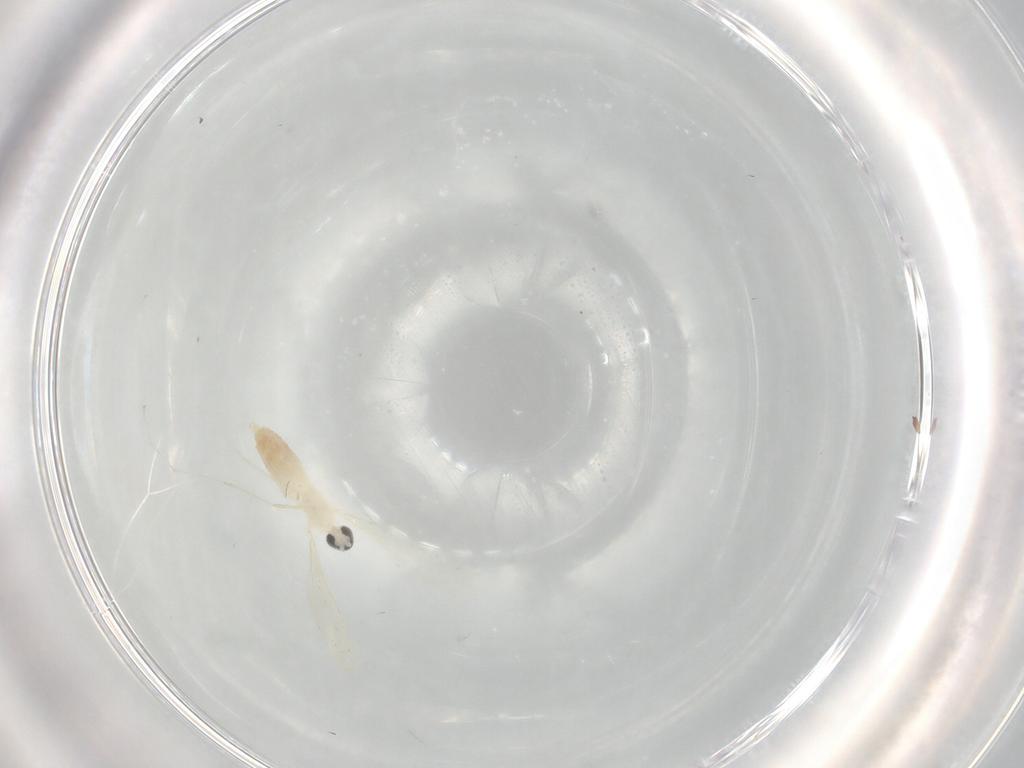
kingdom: Animalia
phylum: Arthropoda
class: Insecta
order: Diptera
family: Cecidomyiidae
